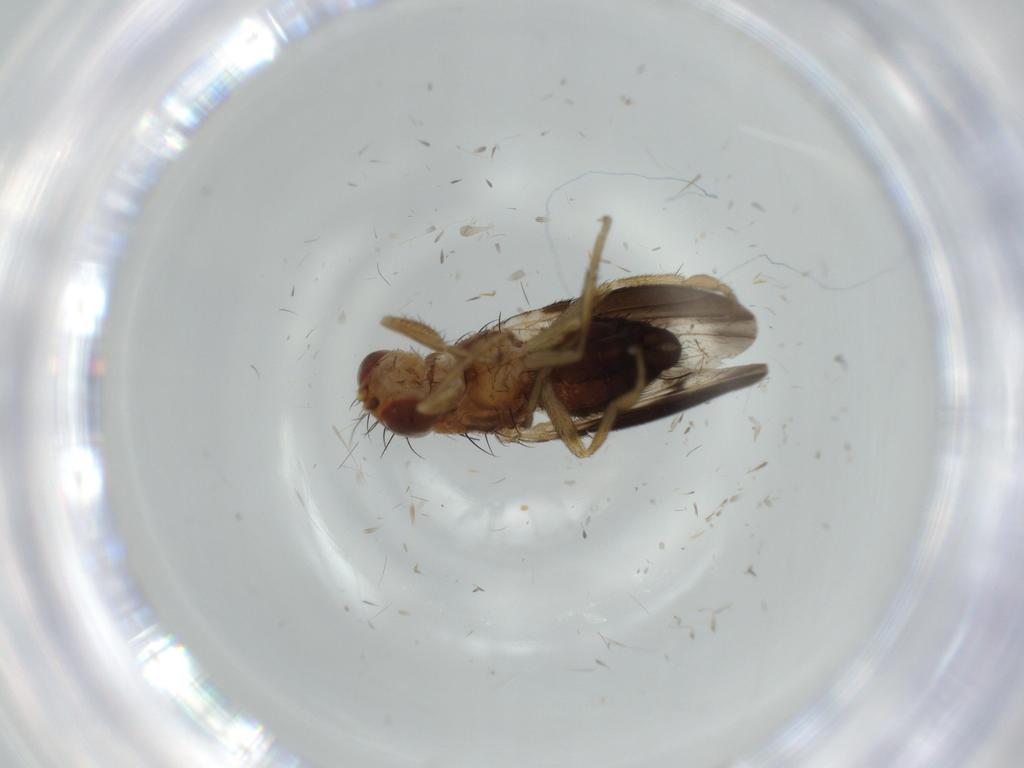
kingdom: Animalia
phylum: Arthropoda
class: Insecta
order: Diptera
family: Heleomyzidae
